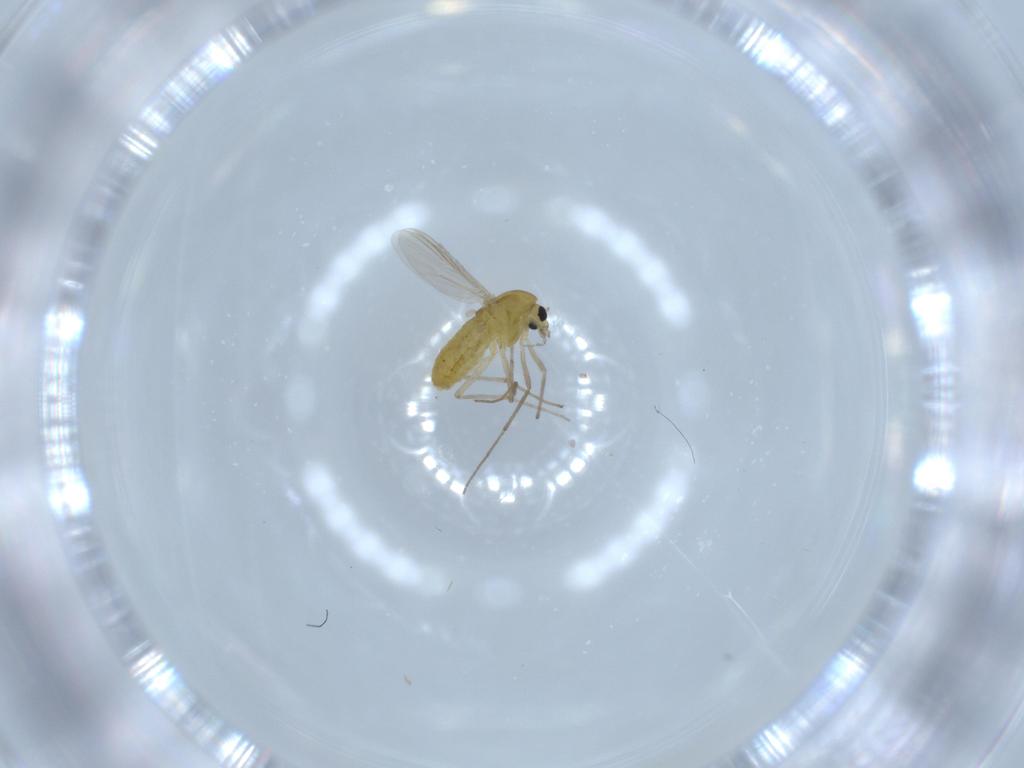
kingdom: Animalia
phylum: Arthropoda
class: Insecta
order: Diptera
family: Chironomidae
